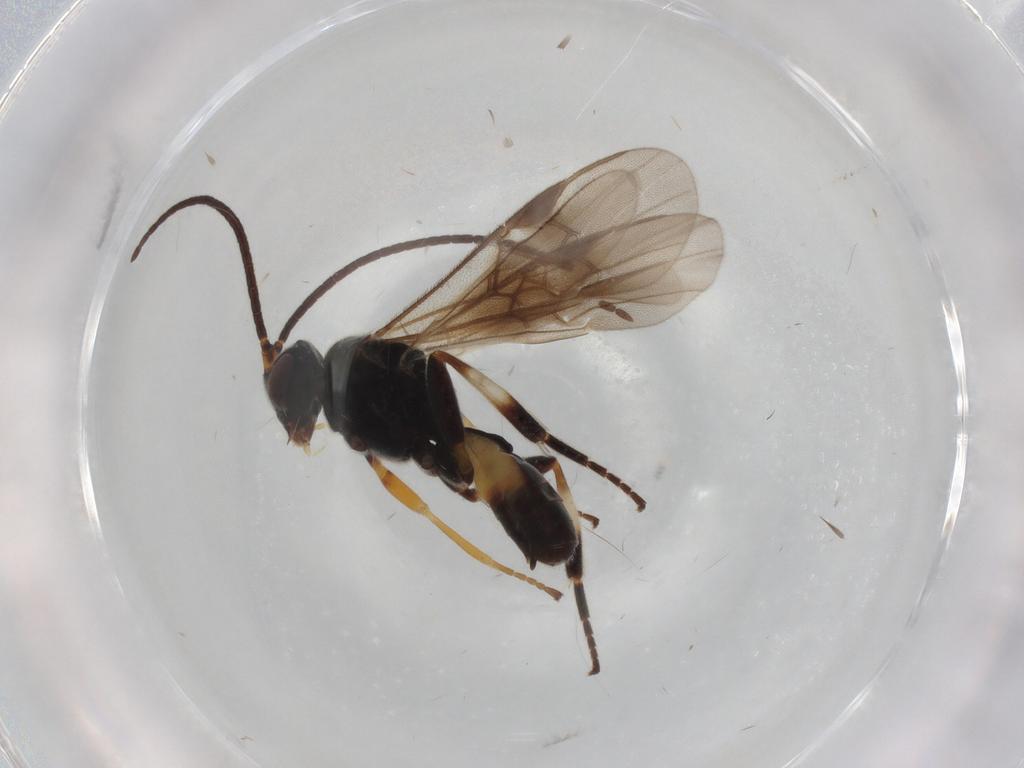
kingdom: Animalia
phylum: Arthropoda
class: Insecta
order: Hymenoptera
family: Braconidae
